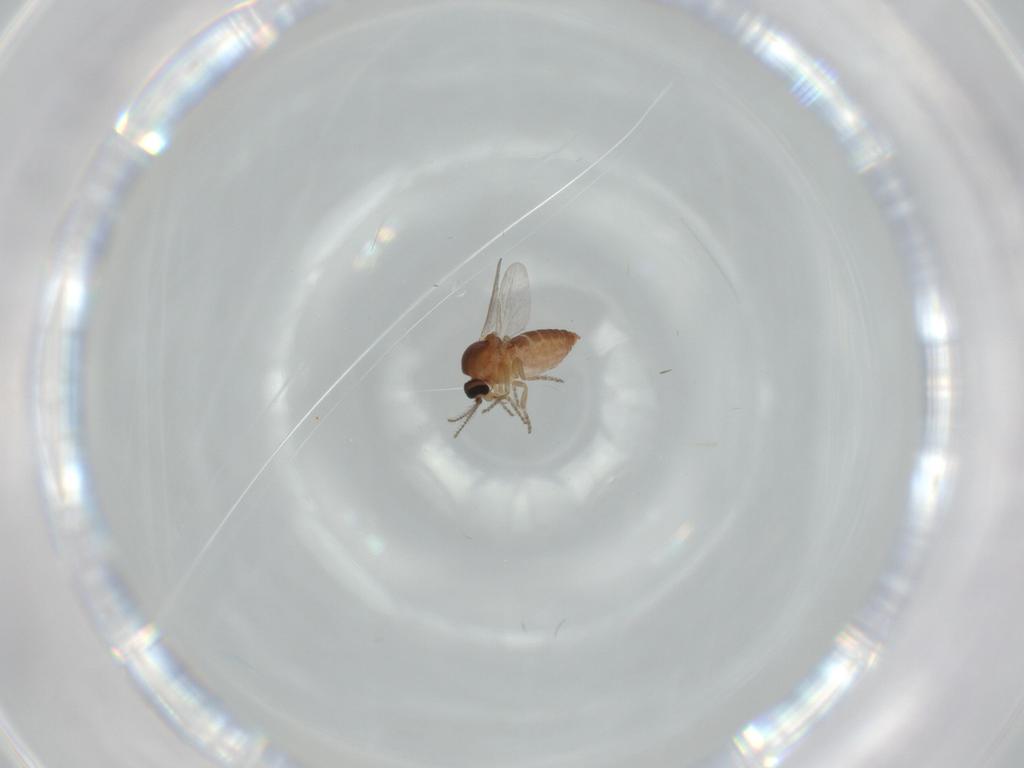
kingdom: Animalia
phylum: Arthropoda
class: Insecta
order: Diptera
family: Ceratopogonidae
